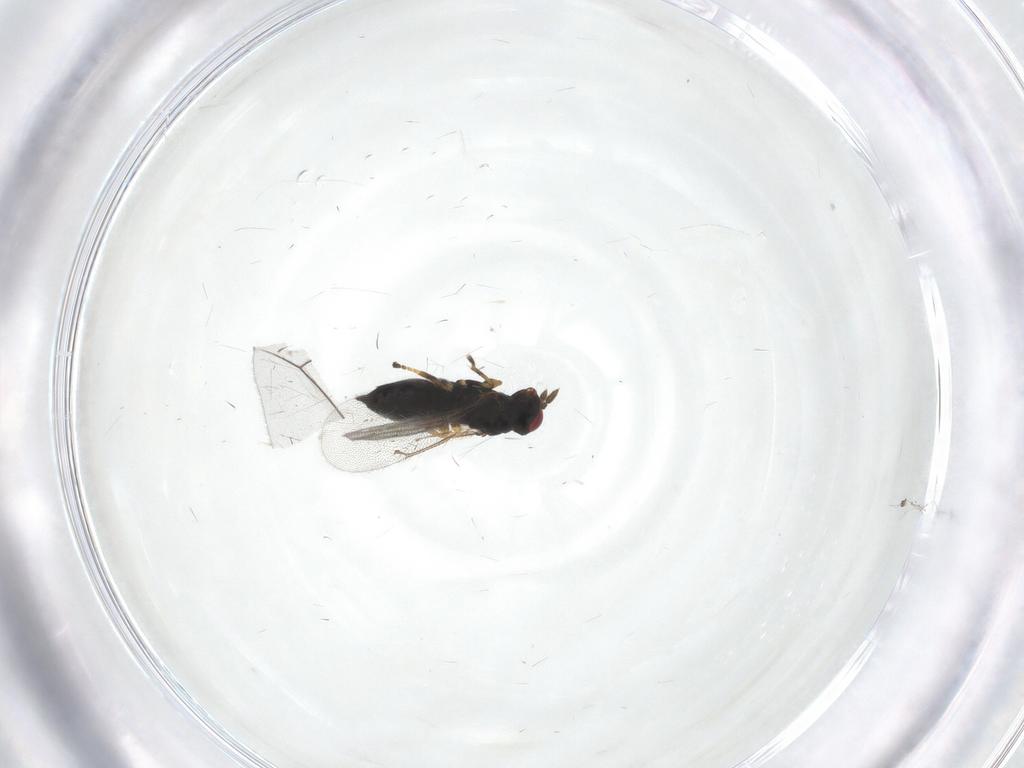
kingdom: Animalia
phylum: Arthropoda
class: Insecta
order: Hymenoptera
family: Eulophidae
